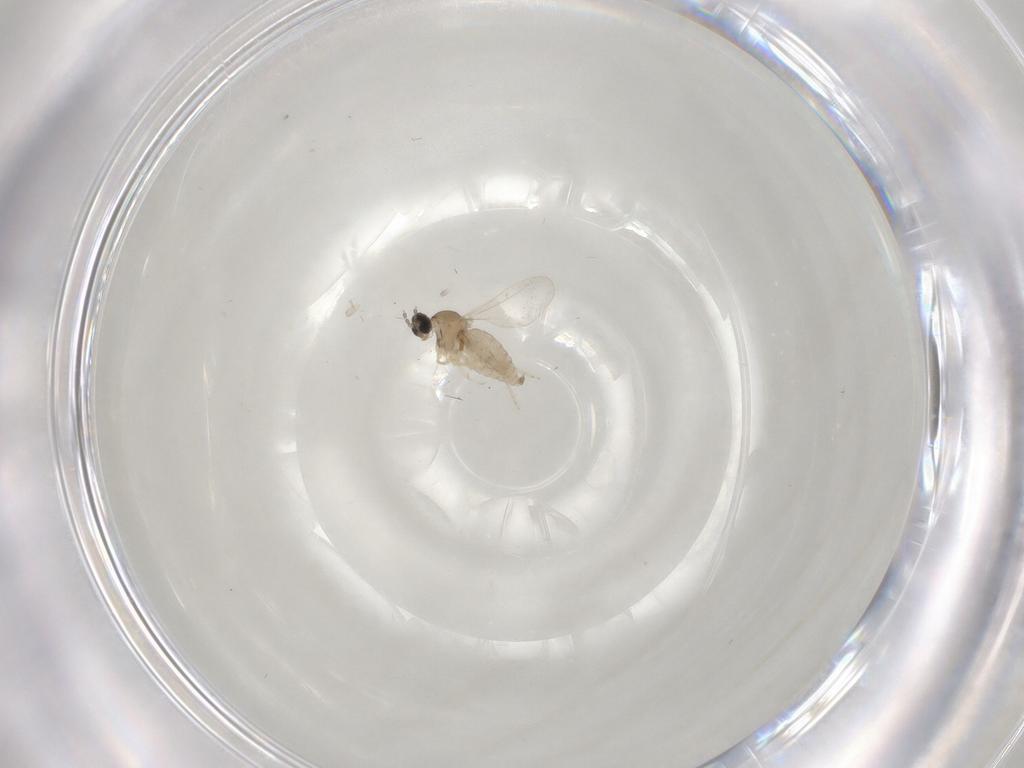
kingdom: Animalia
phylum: Arthropoda
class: Insecta
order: Diptera
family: Cecidomyiidae
